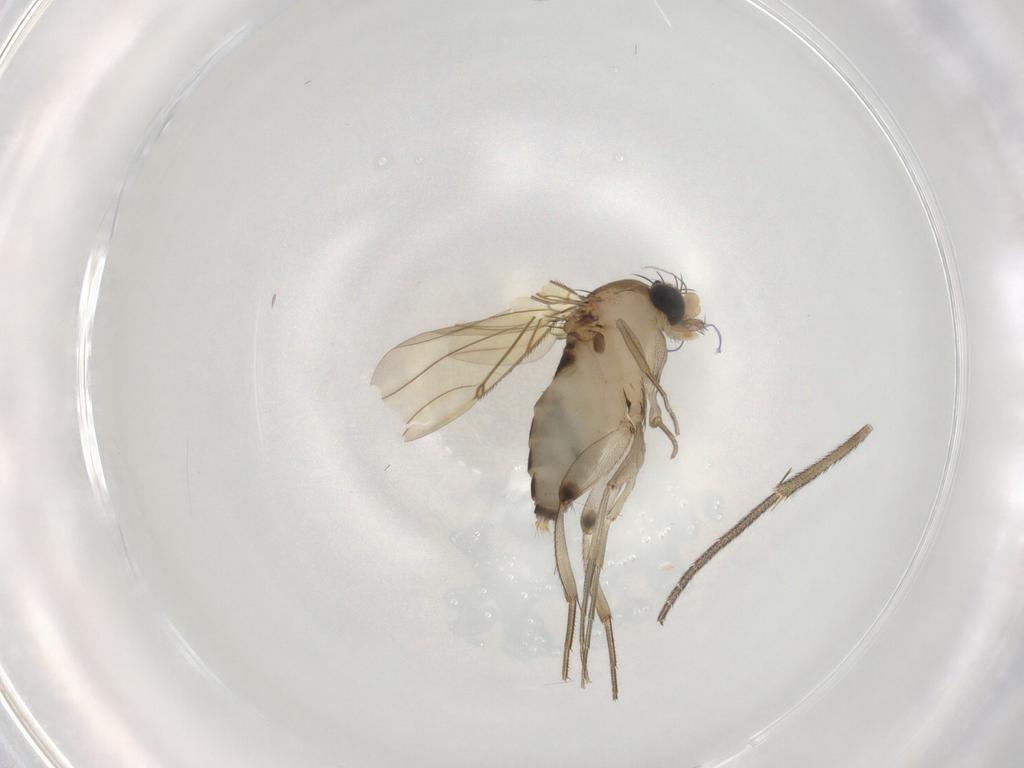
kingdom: Animalia
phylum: Arthropoda
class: Insecta
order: Diptera
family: Mycetophilidae
